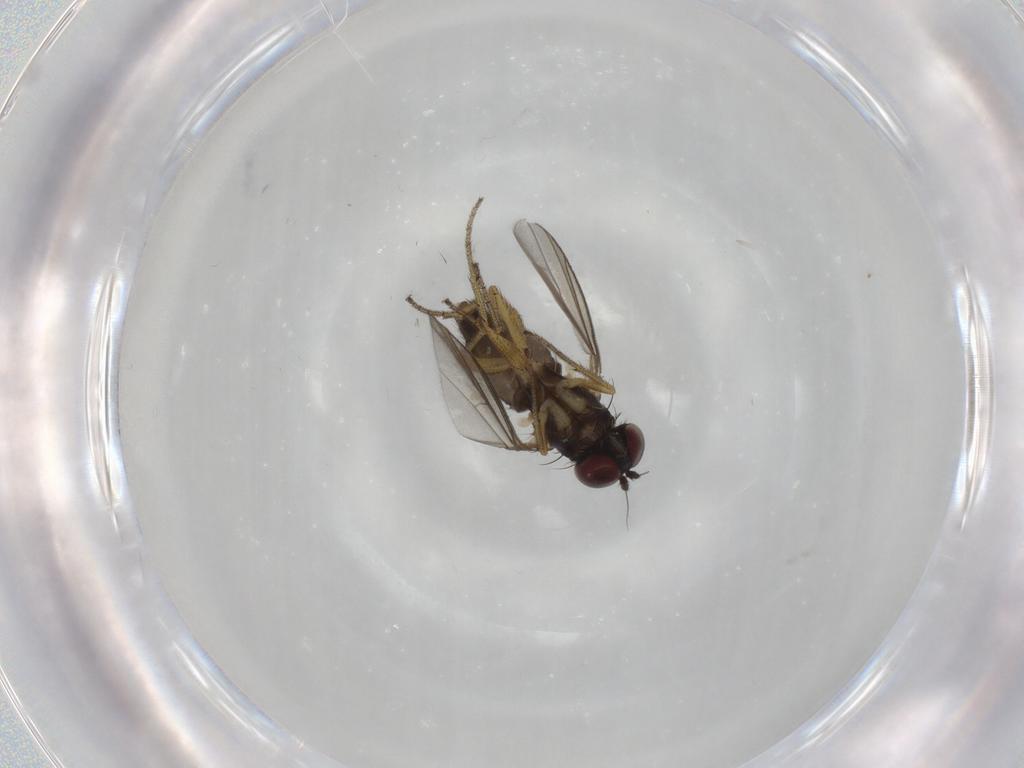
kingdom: Animalia
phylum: Arthropoda
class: Insecta
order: Diptera
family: Dolichopodidae
